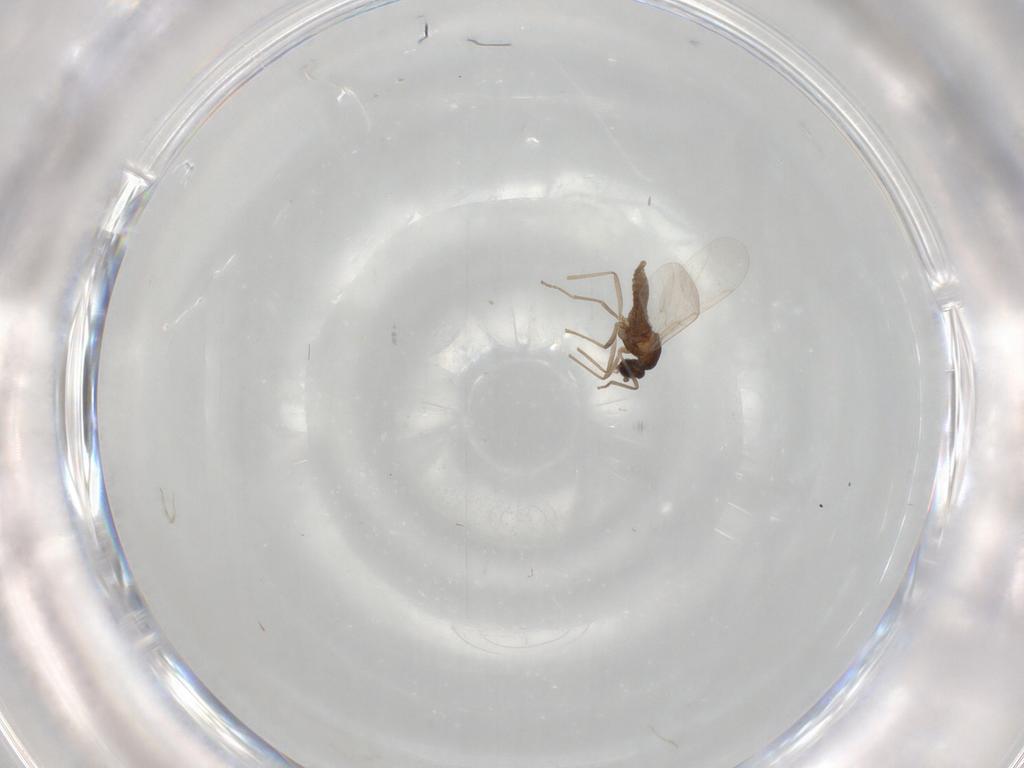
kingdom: Animalia
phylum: Arthropoda
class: Insecta
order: Diptera
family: Cecidomyiidae
